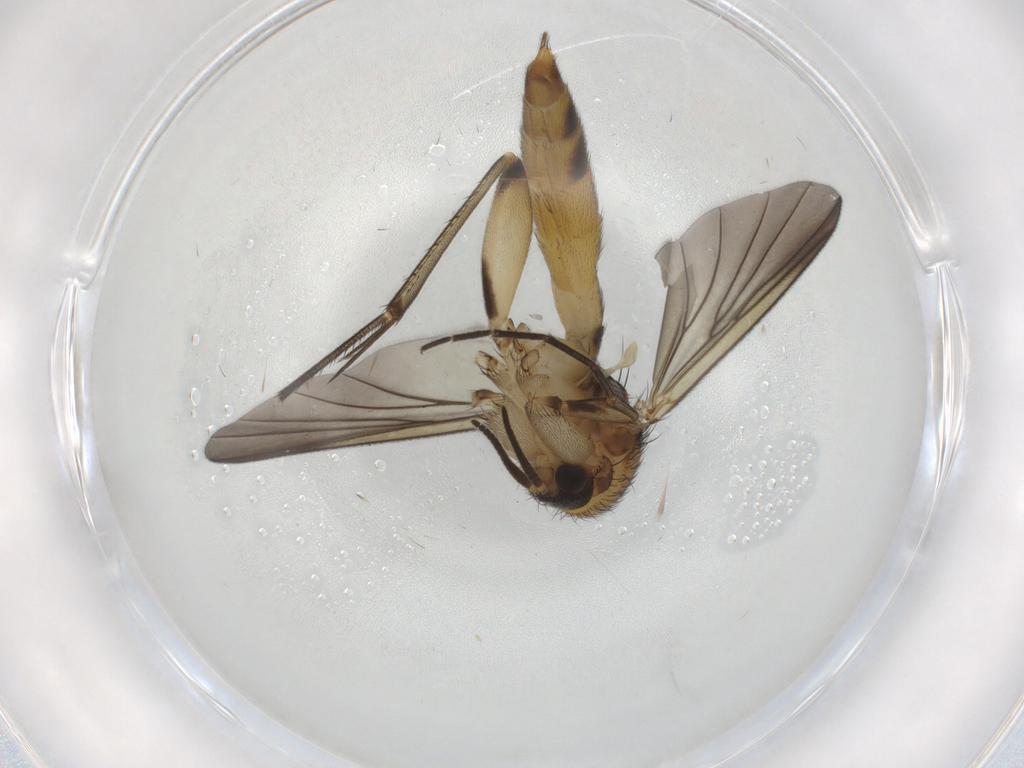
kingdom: Animalia
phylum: Arthropoda
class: Insecta
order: Diptera
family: Mycetophilidae
